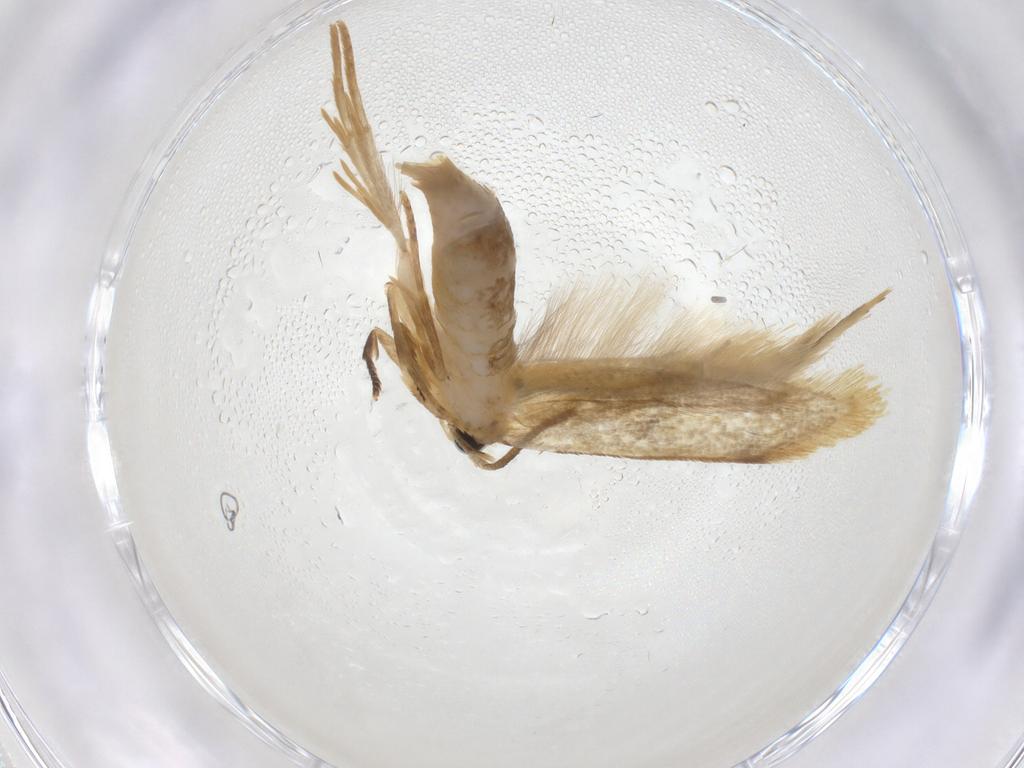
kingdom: Animalia
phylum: Arthropoda
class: Insecta
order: Lepidoptera
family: Tineidae
